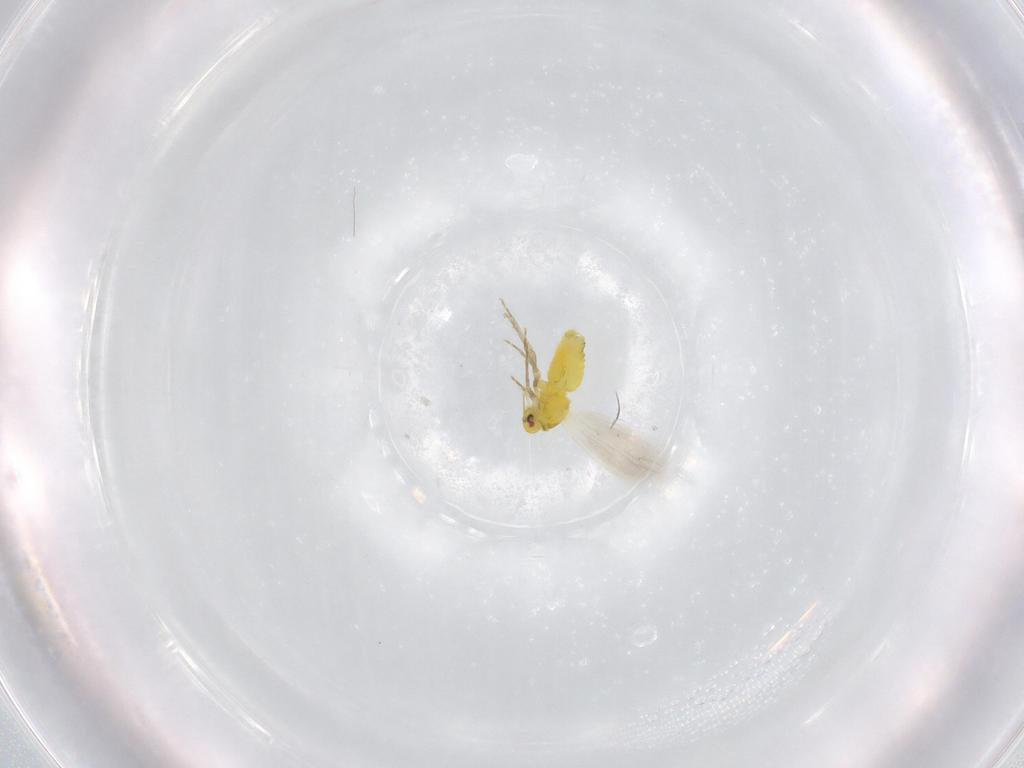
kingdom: Animalia
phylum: Arthropoda
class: Insecta
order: Hemiptera
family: Aleyrodidae
